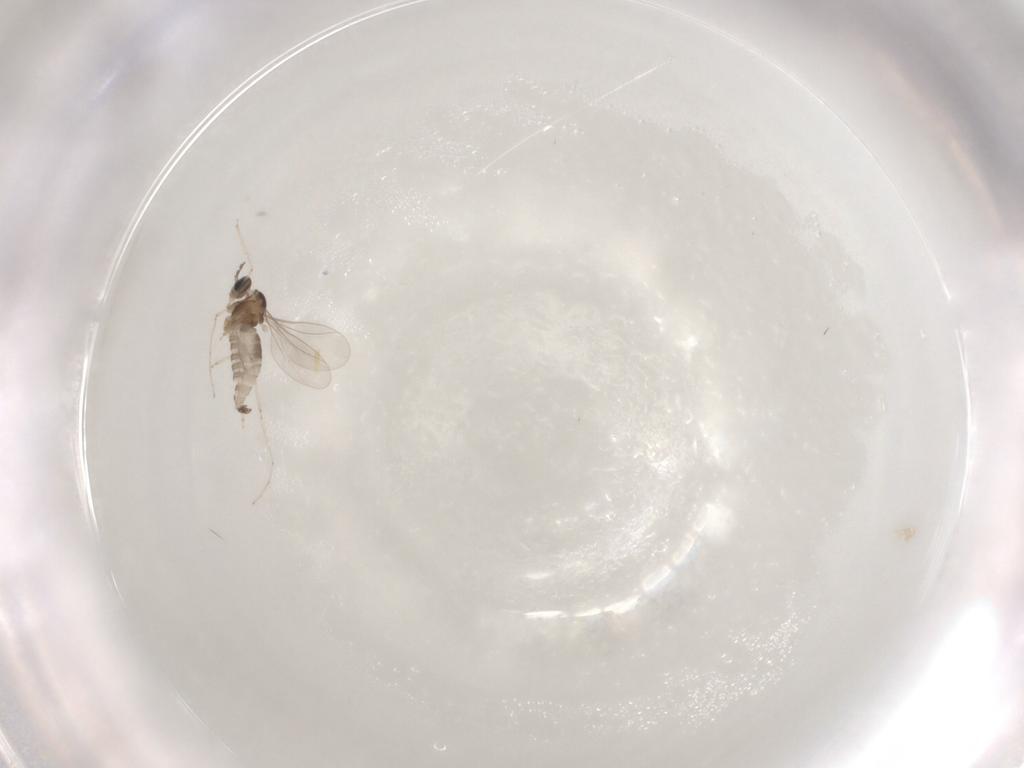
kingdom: Animalia
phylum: Arthropoda
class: Insecta
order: Diptera
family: Cecidomyiidae
